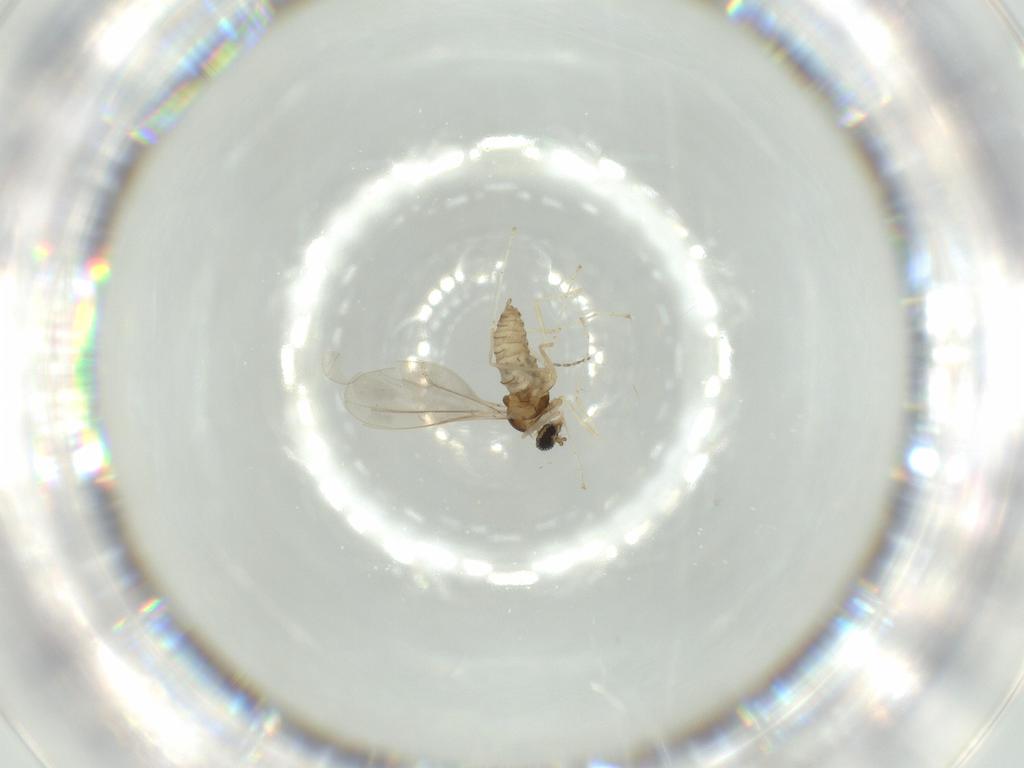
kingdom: Animalia
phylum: Arthropoda
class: Insecta
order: Diptera
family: Cecidomyiidae
